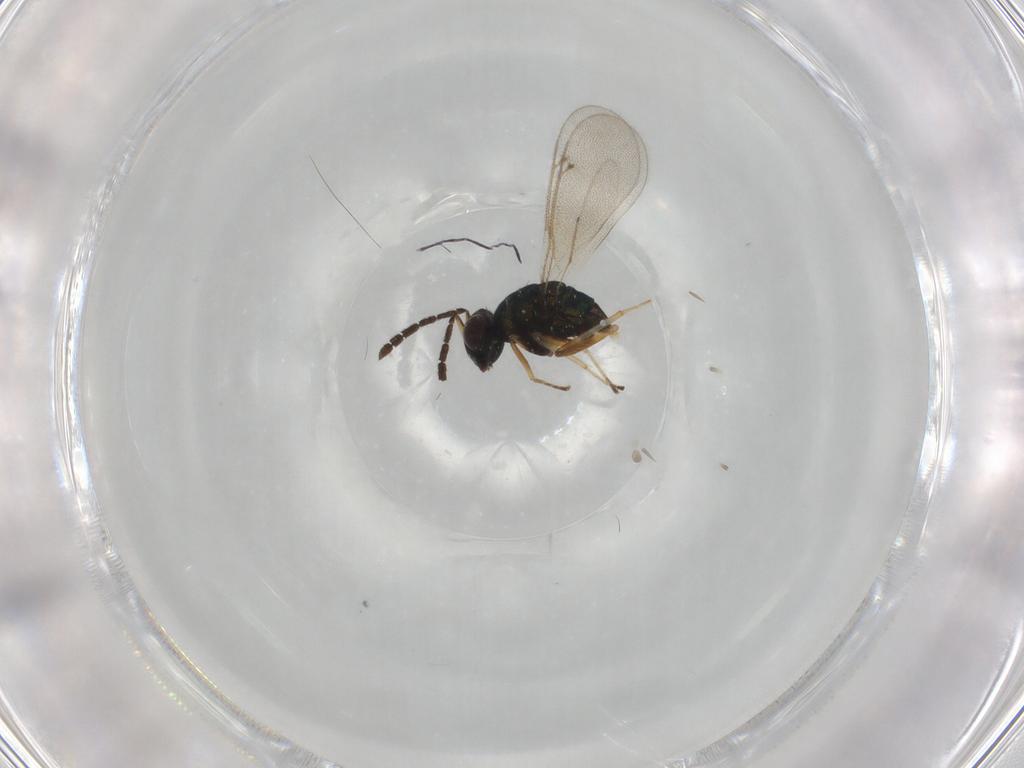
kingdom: Animalia
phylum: Arthropoda
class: Insecta
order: Hymenoptera
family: Eulophidae
